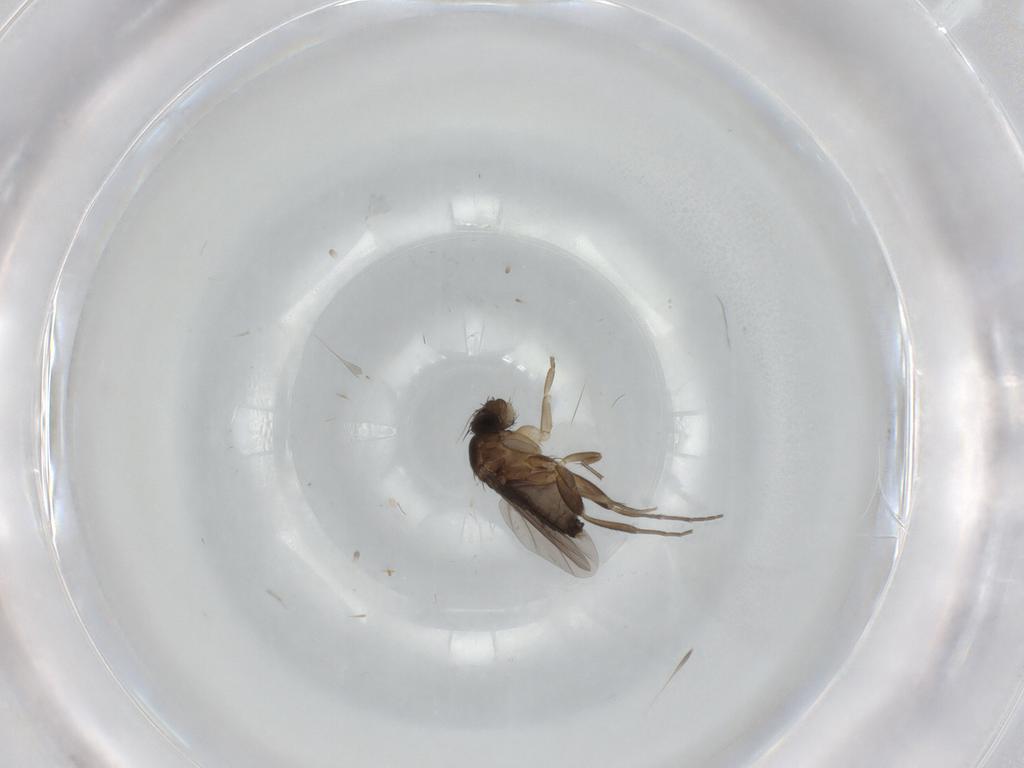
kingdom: Animalia
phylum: Arthropoda
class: Insecta
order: Diptera
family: Phoridae
